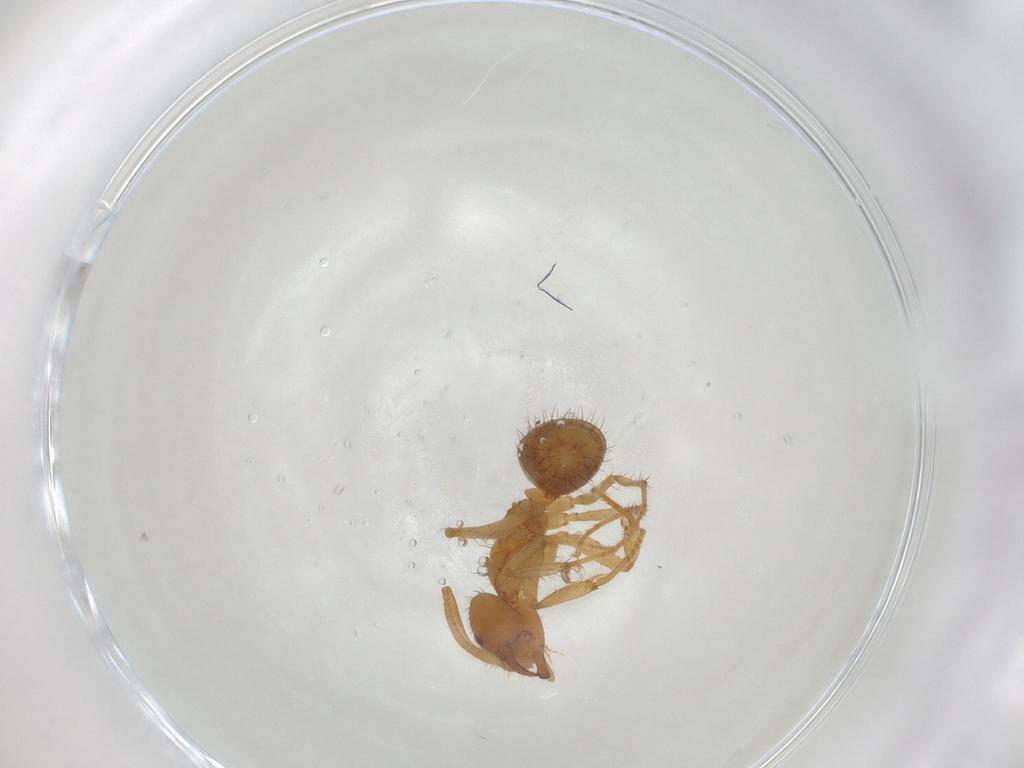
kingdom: Animalia
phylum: Arthropoda
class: Insecta
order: Hymenoptera
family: Formicidae
